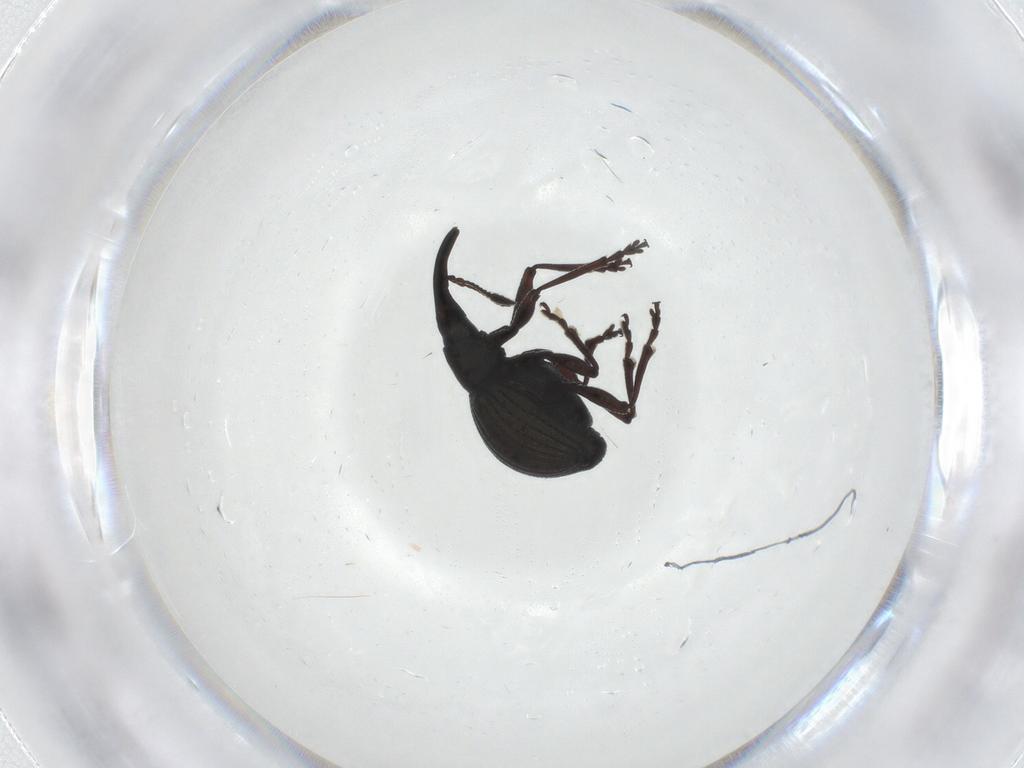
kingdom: Animalia
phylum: Arthropoda
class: Insecta
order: Coleoptera
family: Brentidae
